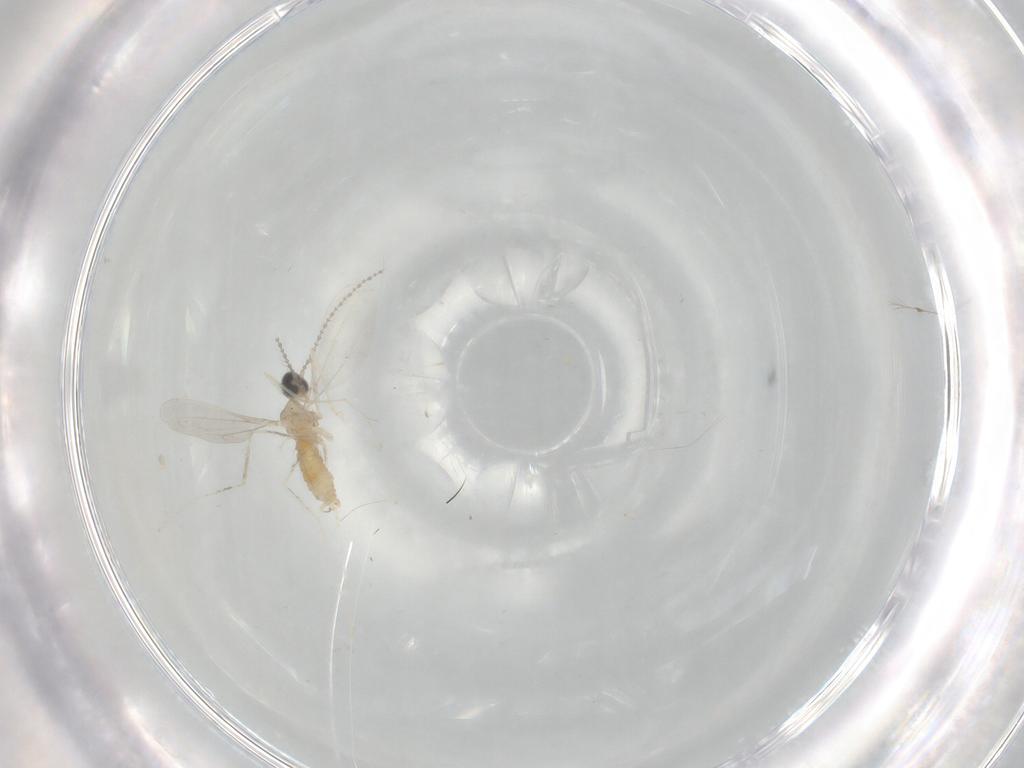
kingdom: Animalia
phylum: Arthropoda
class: Insecta
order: Diptera
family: Cecidomyiidae
